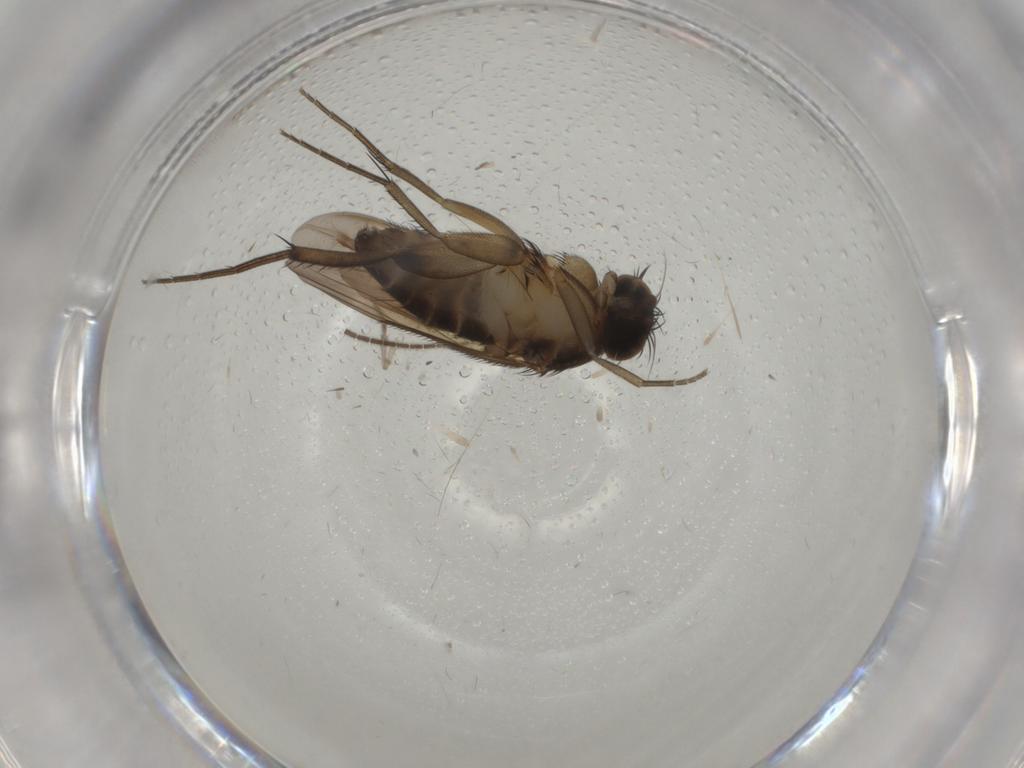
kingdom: Animalia
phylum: Arthropoda
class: Insecta
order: Diptera
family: Phoridae
